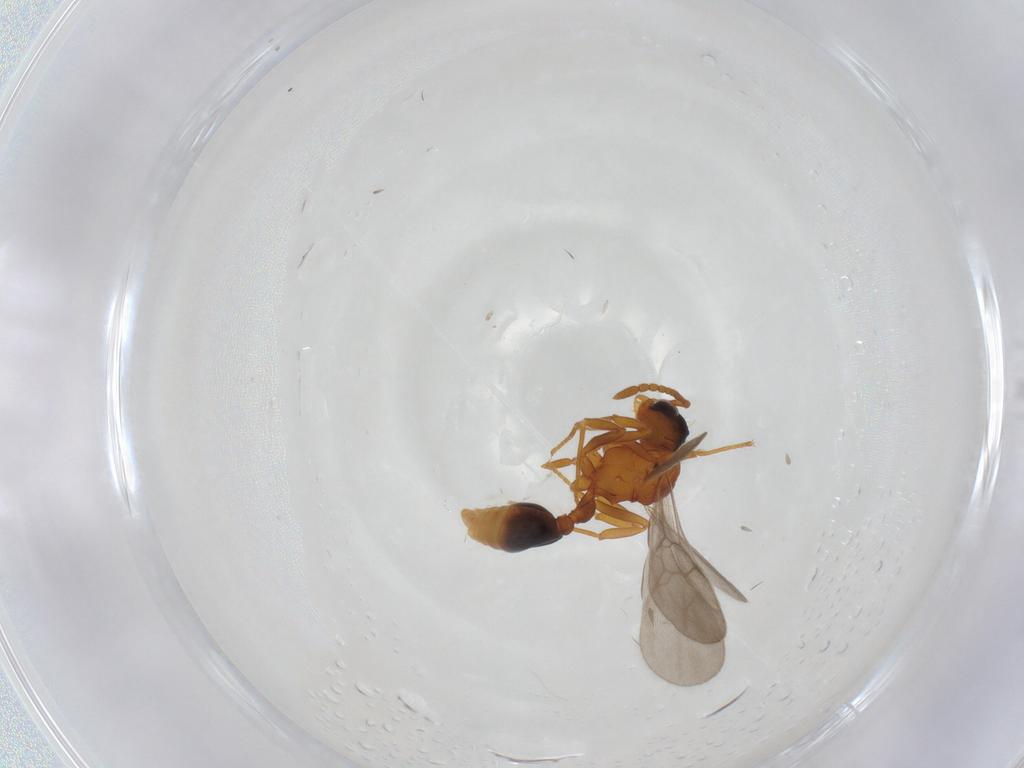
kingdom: Animalia
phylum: Arthropoda
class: Insecta
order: Hymenoptera
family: Formicidae
